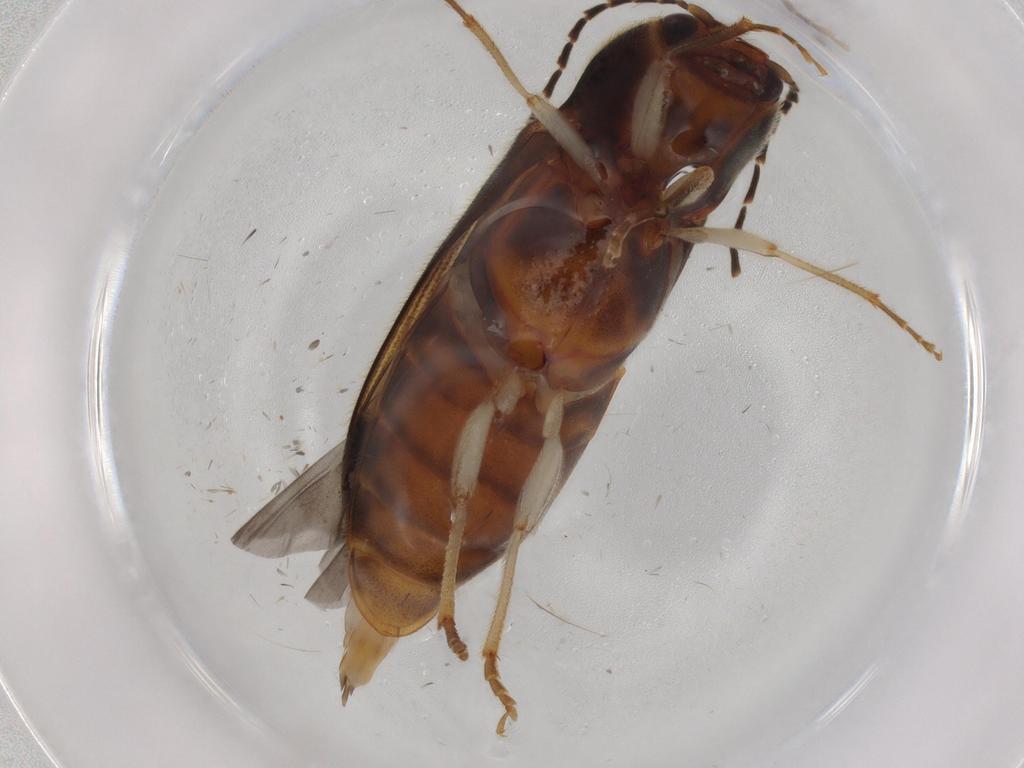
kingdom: Animalia
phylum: Arthropoda
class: Insecta
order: Coleoptera
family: Elateridae
